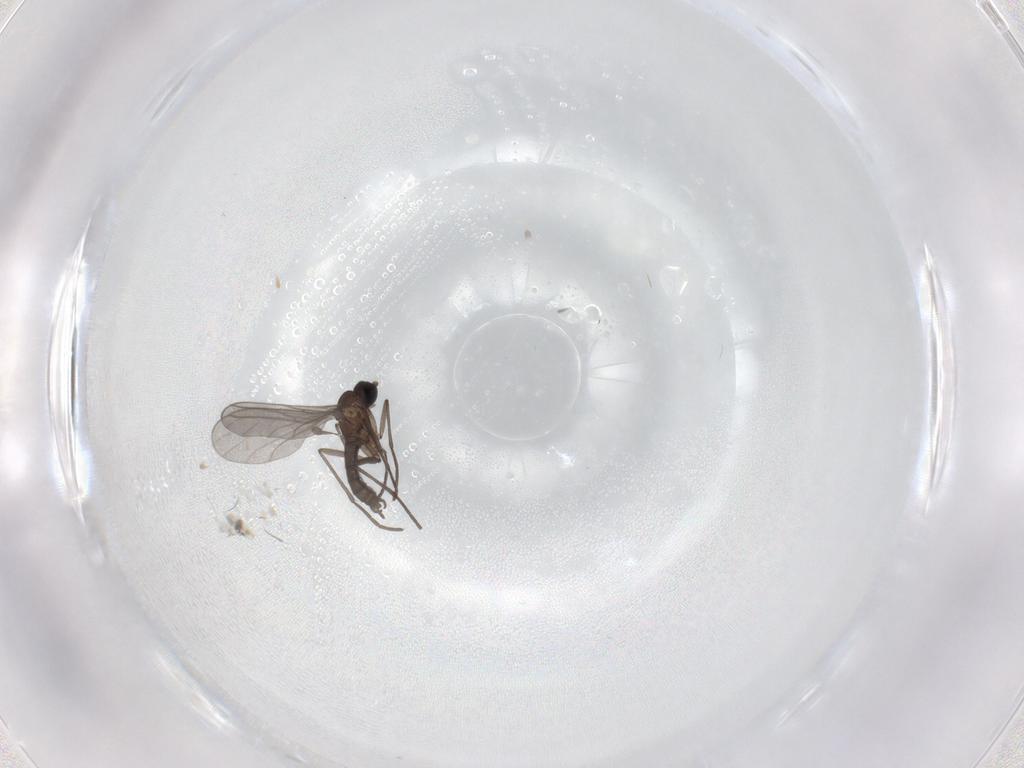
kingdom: Animalia
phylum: Arthropoda
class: Insecta
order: Diptera
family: Sciaridae
